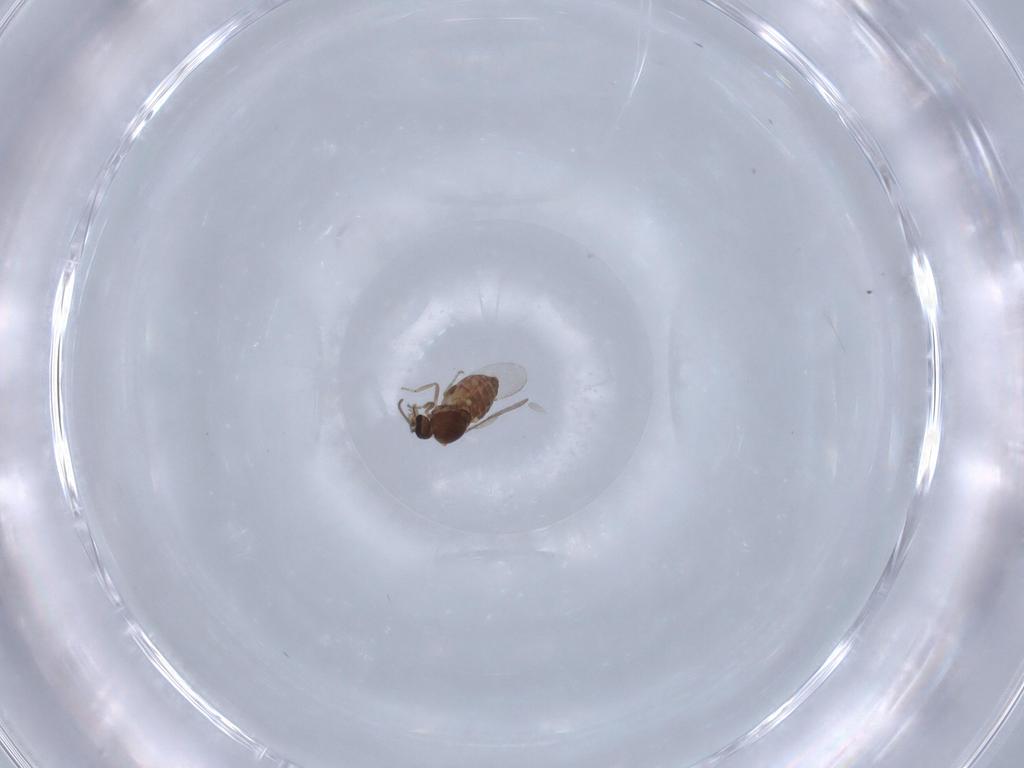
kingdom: Animalia
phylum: Arthropoda
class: Insecta
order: Diptera
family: Ceratopogonidae
